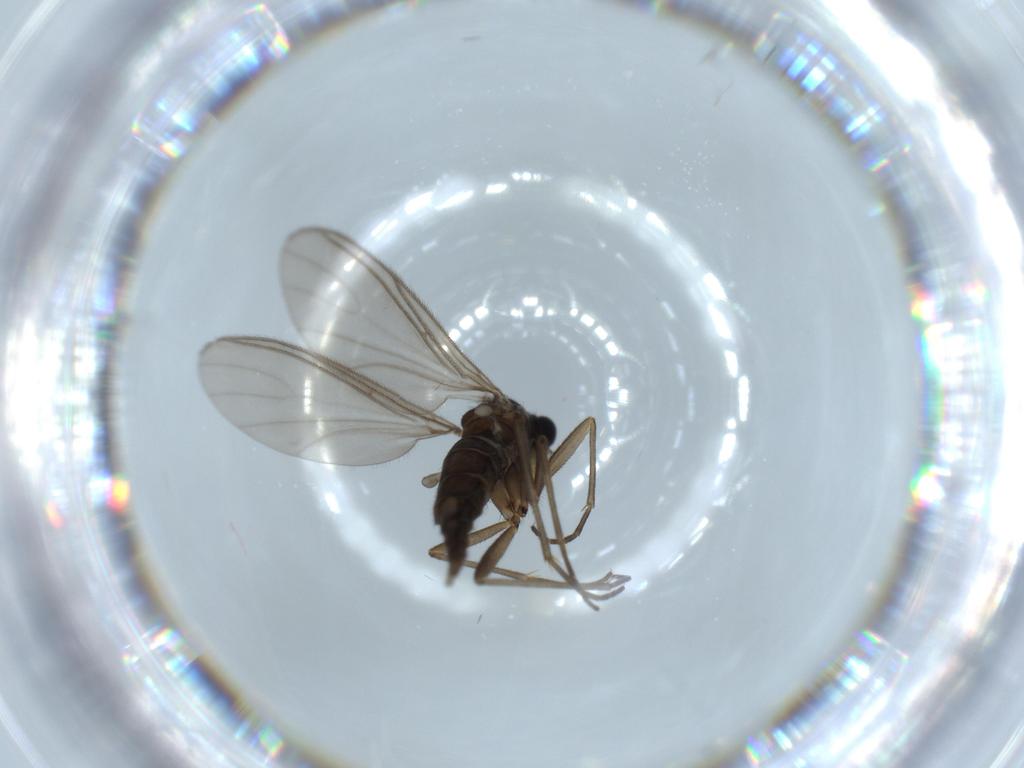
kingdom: Animalia
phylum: Arthropoda
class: Insecta
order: Diptera
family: Sciaridae
